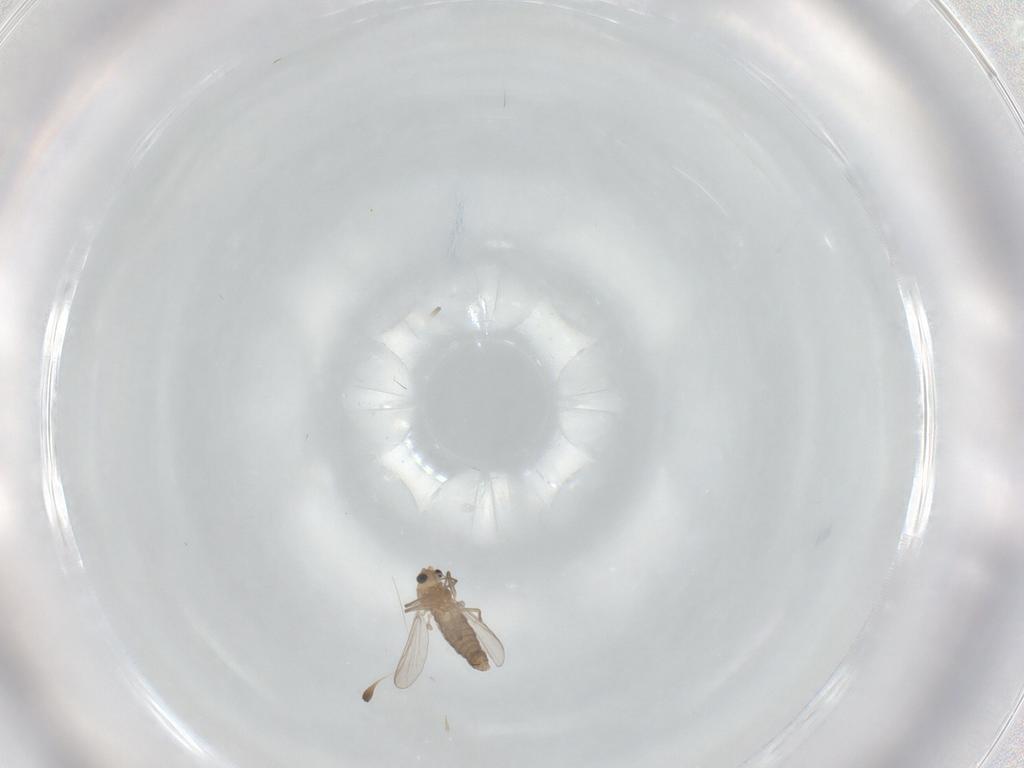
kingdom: Animalia
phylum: Arthropoda
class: Insecta
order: Diptera
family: Chironomidae
